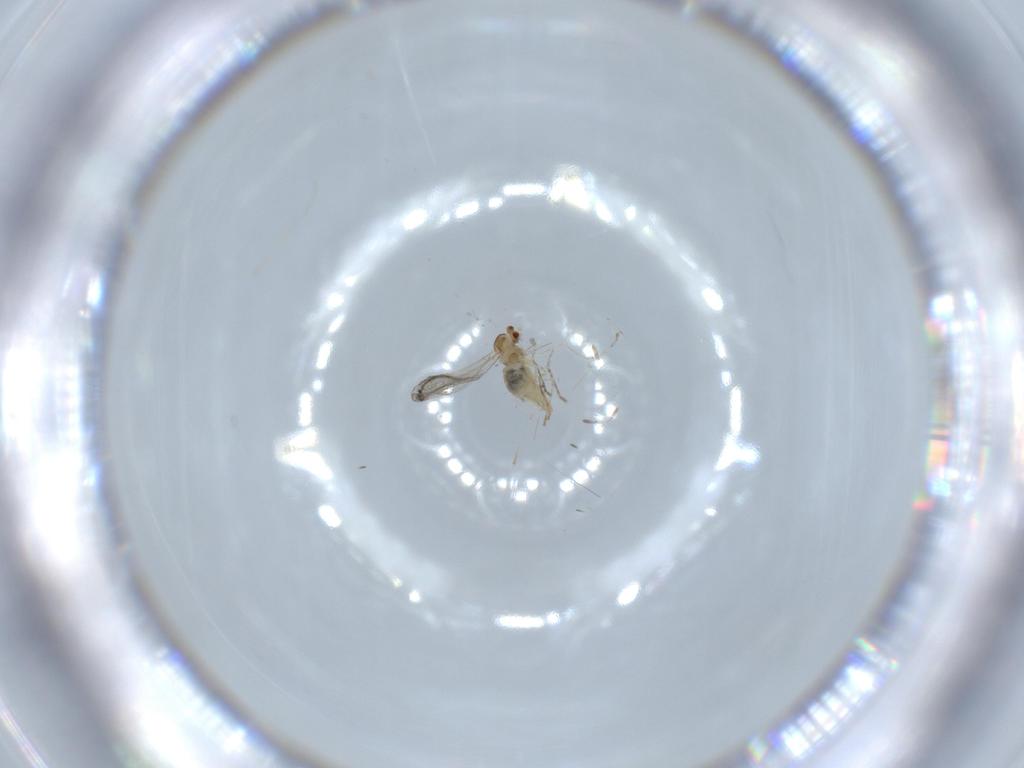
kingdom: Animalia
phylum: Arthropoda
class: Insecta
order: Diptera
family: Cecidomyiidae
